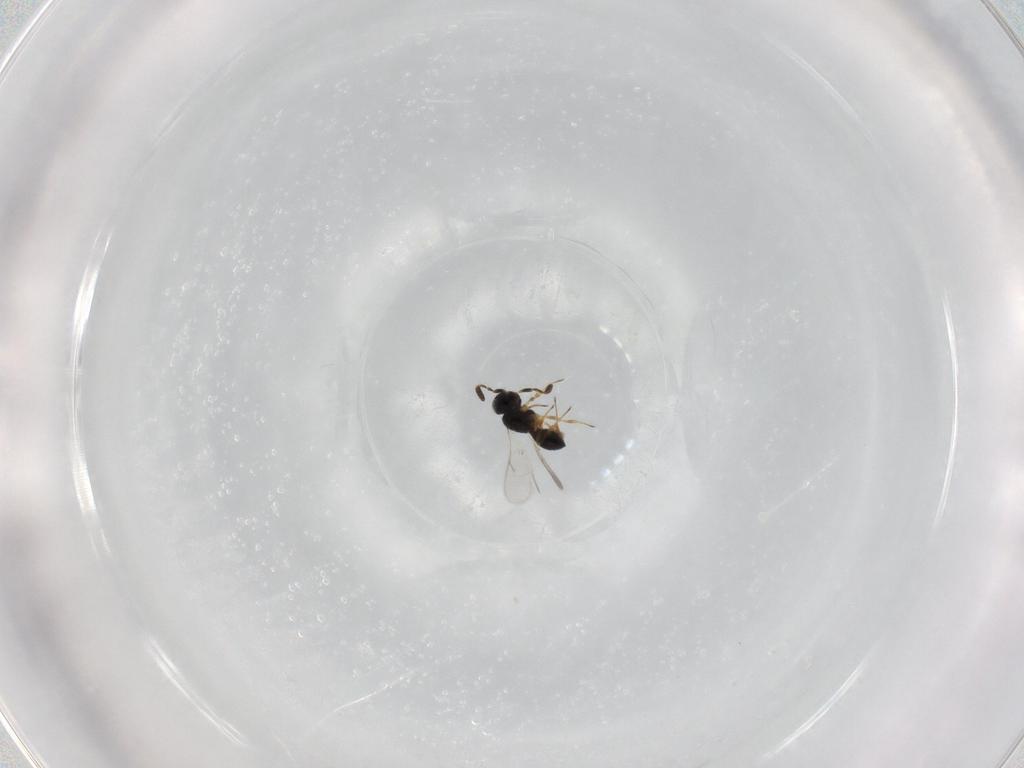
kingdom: Animalia
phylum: Arthropoda
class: Insecta
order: Hymenoptera
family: Scelionidae
